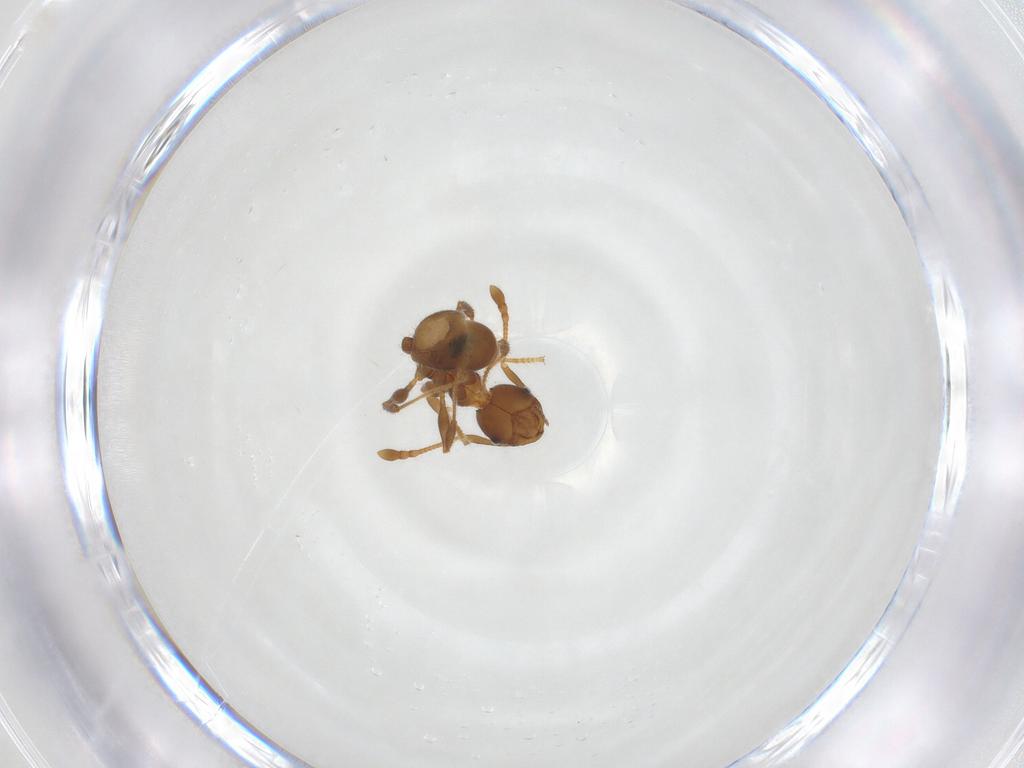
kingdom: Animalia
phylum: Arthropoda
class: Insecta
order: Hymenoptera
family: Formicidae
